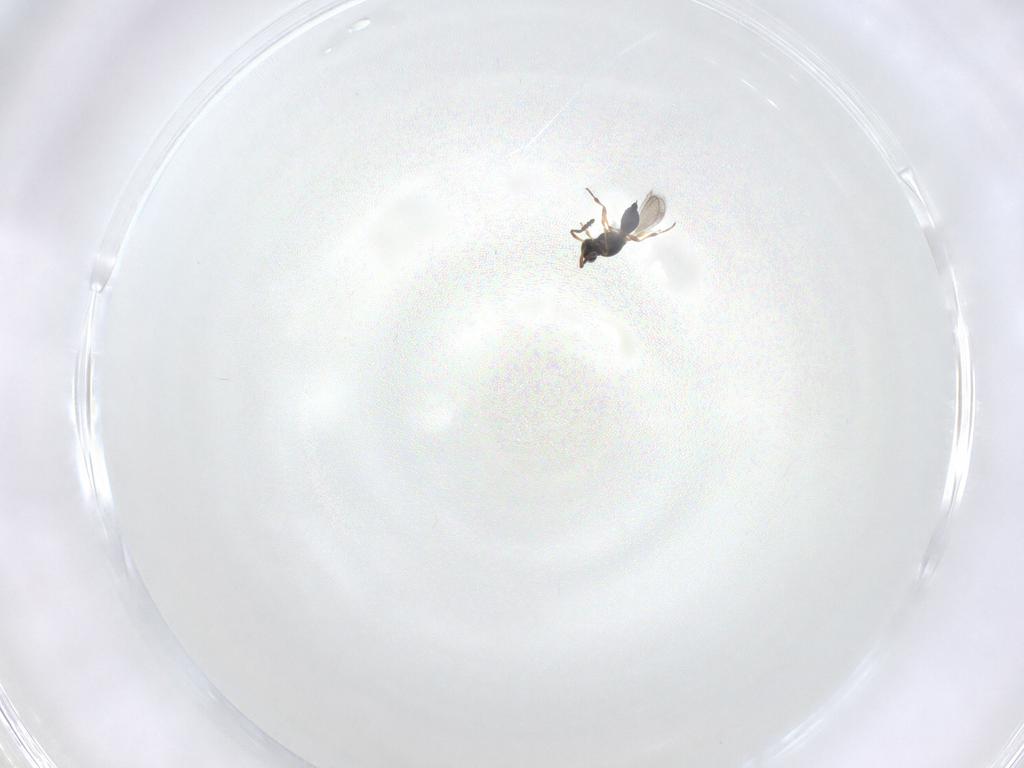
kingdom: Animalia
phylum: Arthropoda
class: Insecta
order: Hymenoptera
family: Platygastridae
